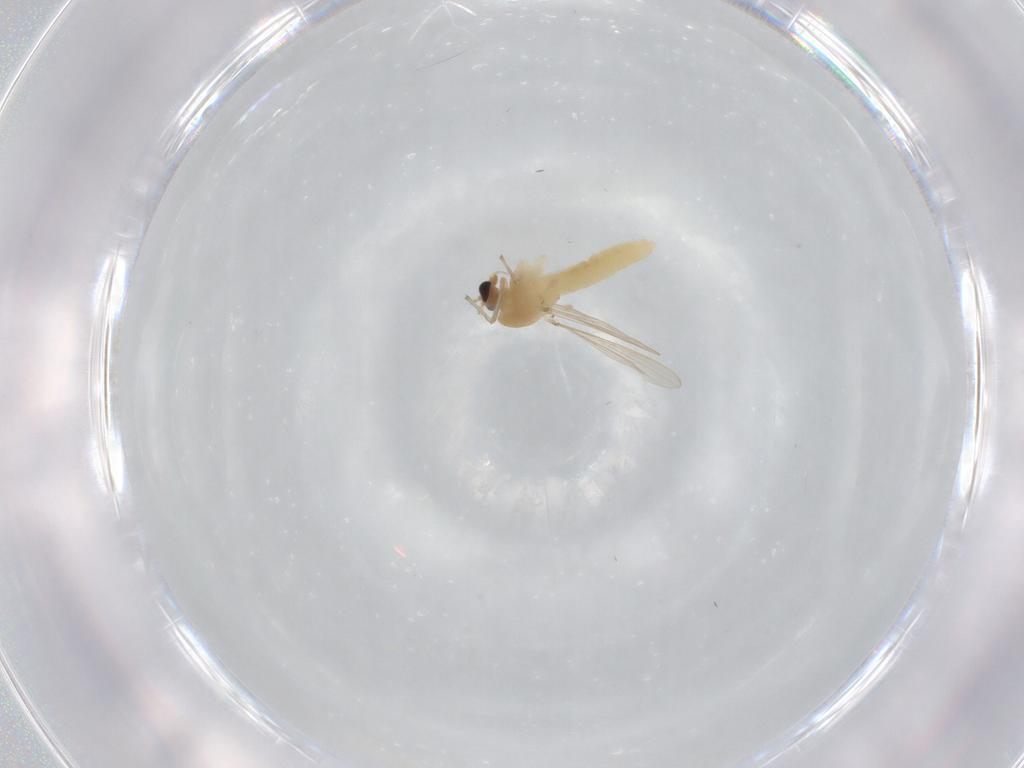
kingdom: Animalia
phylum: Arthropoda
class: Insecta
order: Diptera
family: Chironomidae
